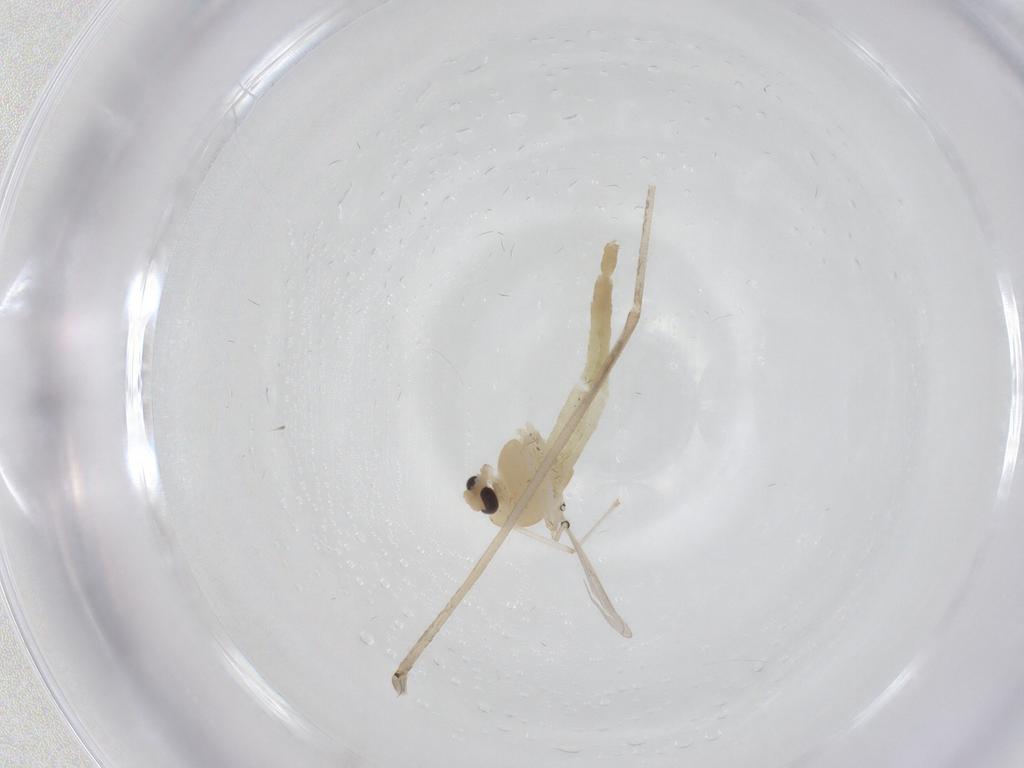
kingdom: Animalia
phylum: Arthropoda
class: Insecta
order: Diptera
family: Chironomidae
